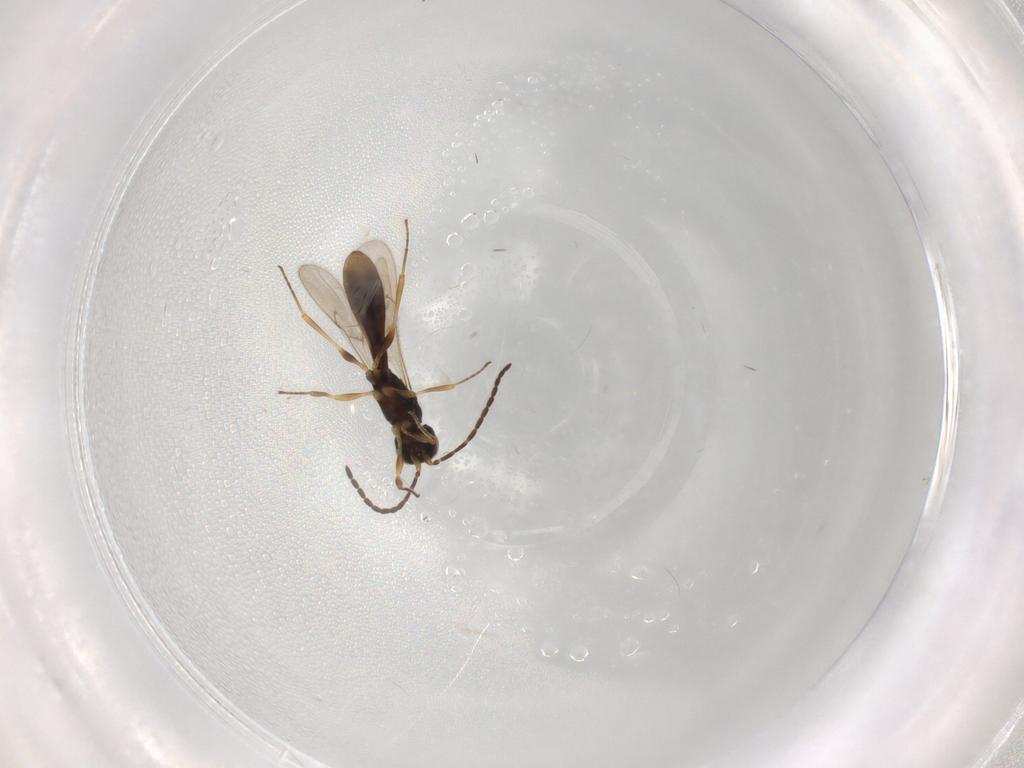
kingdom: Animalia
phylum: Arthropoda
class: Insecta
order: Hymenoptera
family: Scelionidae
